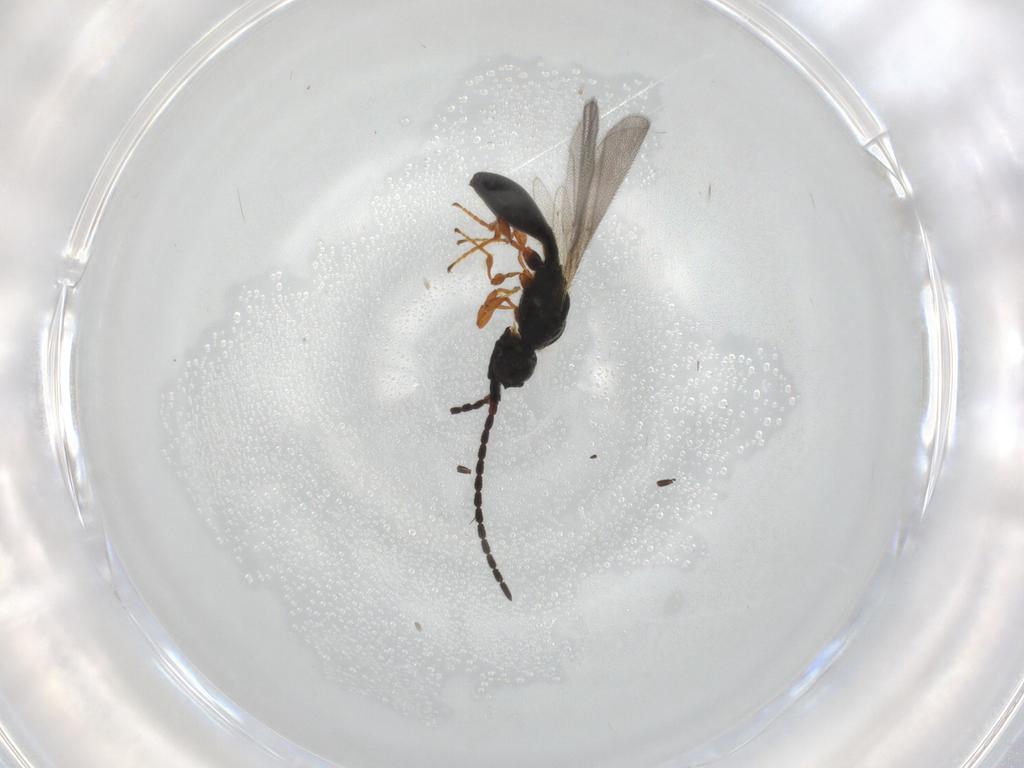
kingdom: Animalia
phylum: Arthropoda
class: Insecta
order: Hymenoptera
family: Diapriidae
